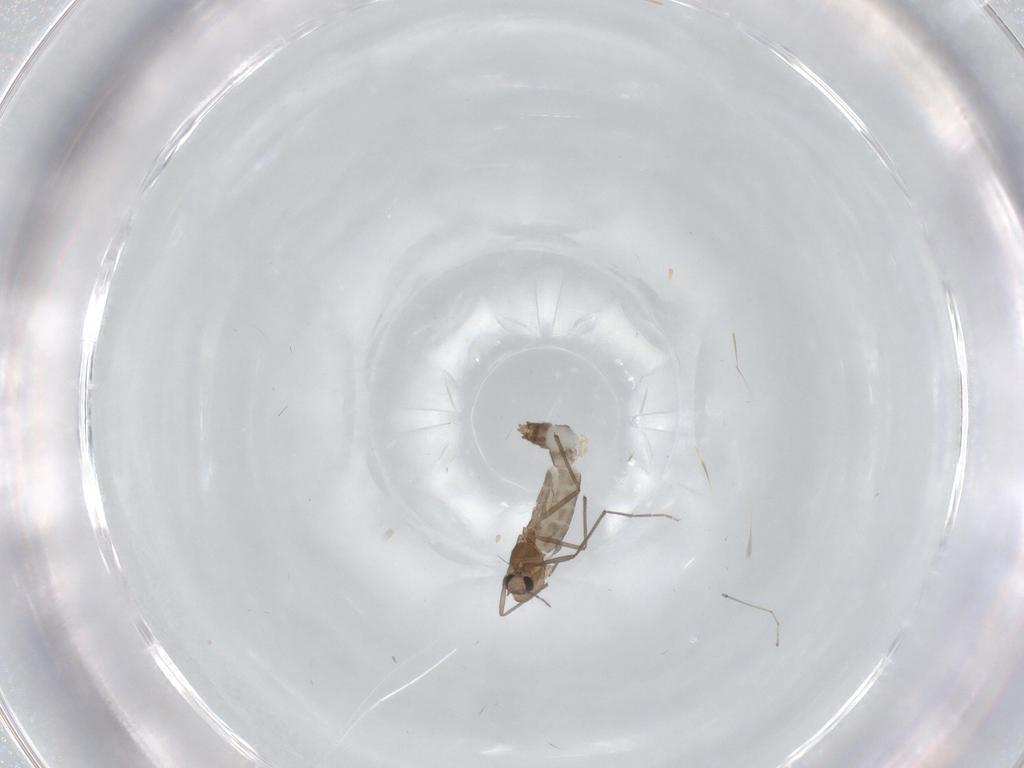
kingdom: Animalia
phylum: Arthropoda
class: Insecta
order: Diptera
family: Chironomidae
